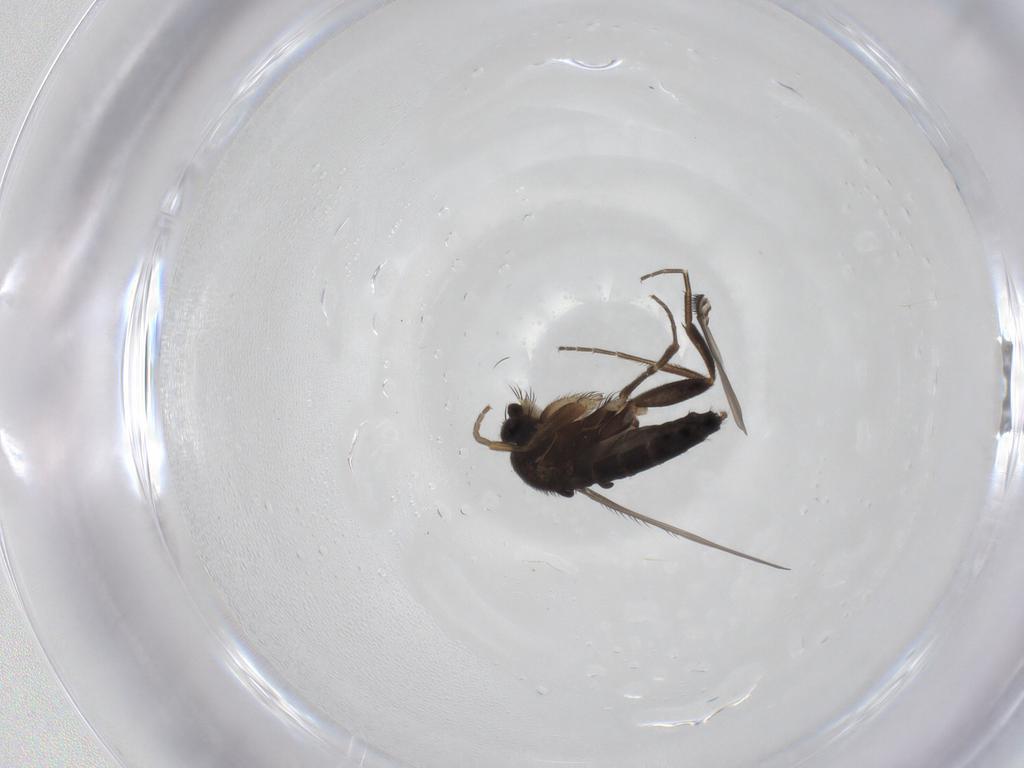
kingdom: Animalia
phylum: Arthropoda
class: Insecta
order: Diptera
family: Phoridae
